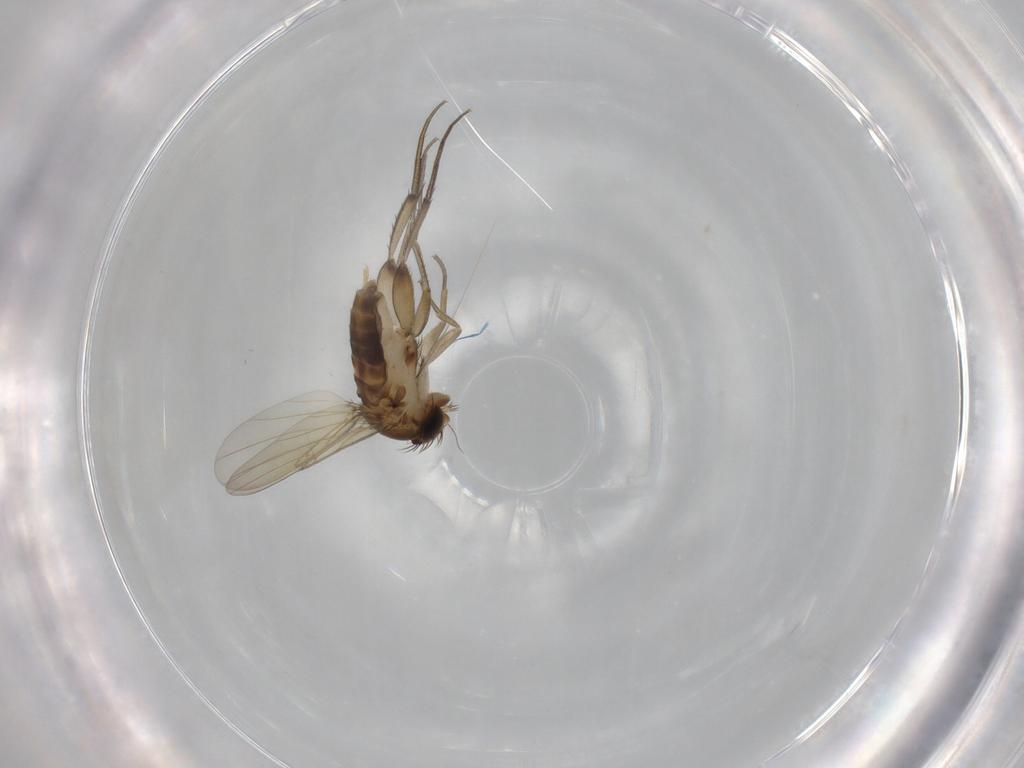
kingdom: Animalia
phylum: Arthropoda
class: Insecta
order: Diptera
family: Phoridae
